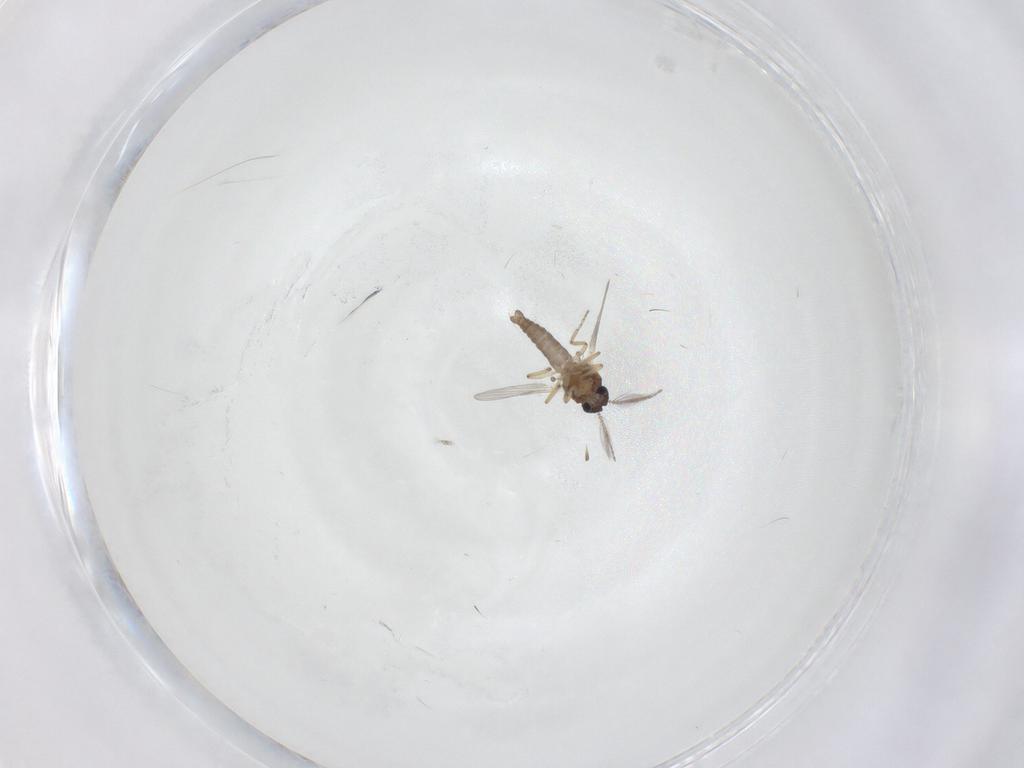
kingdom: Animalia
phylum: Arthropoda
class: Insecta
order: Diptera
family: Ceratopogonidae
